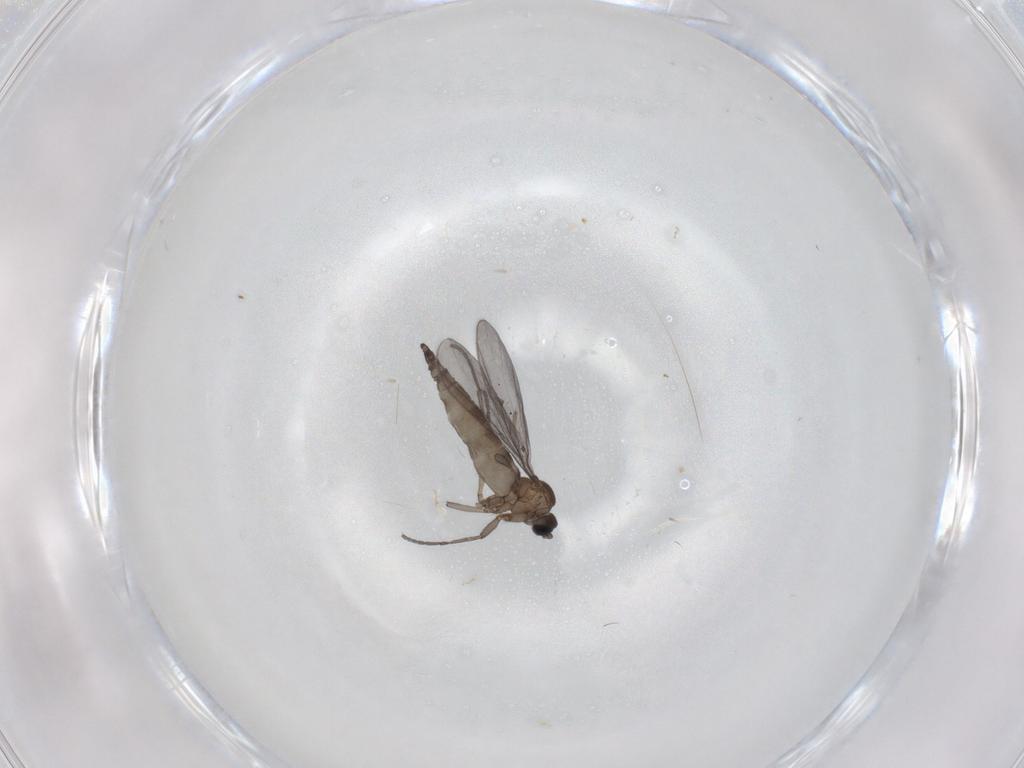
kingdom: Animalia
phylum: Arthropoda
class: Insecta
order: Diptera
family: Sciaridae
